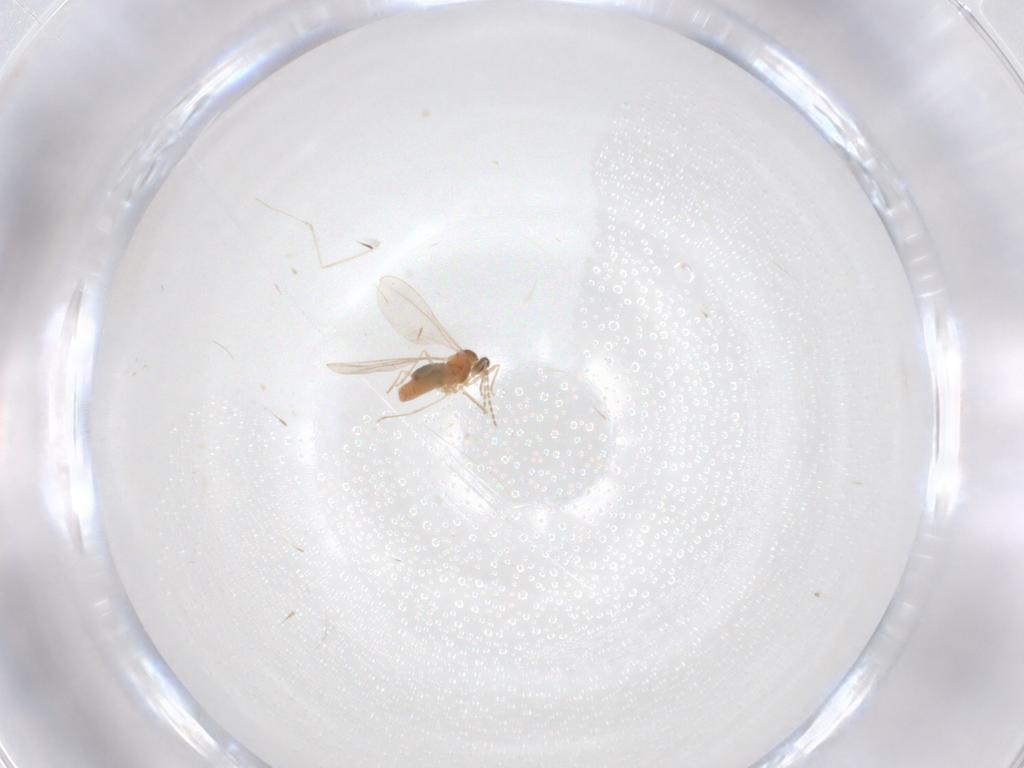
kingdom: Animalia
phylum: Arthropoda
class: Insecta
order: Diptera
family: Cecidomyiidae
